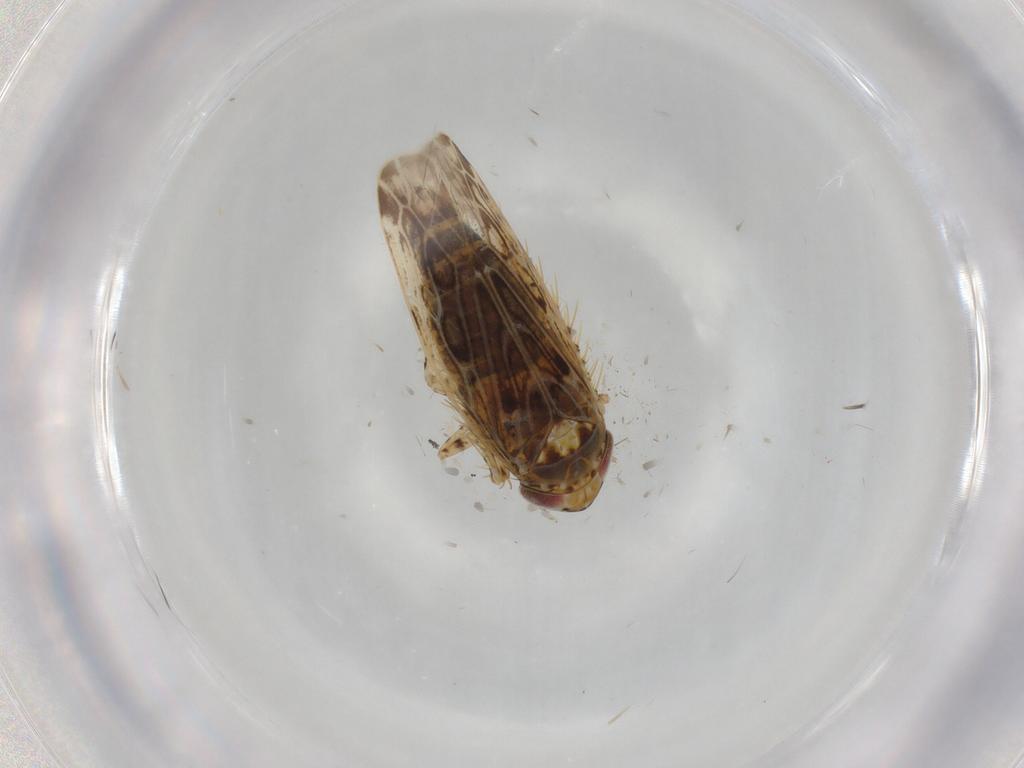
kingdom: Animalia
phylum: Arthropoda
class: Insecta
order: Hemiptera
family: Cicadellidae
